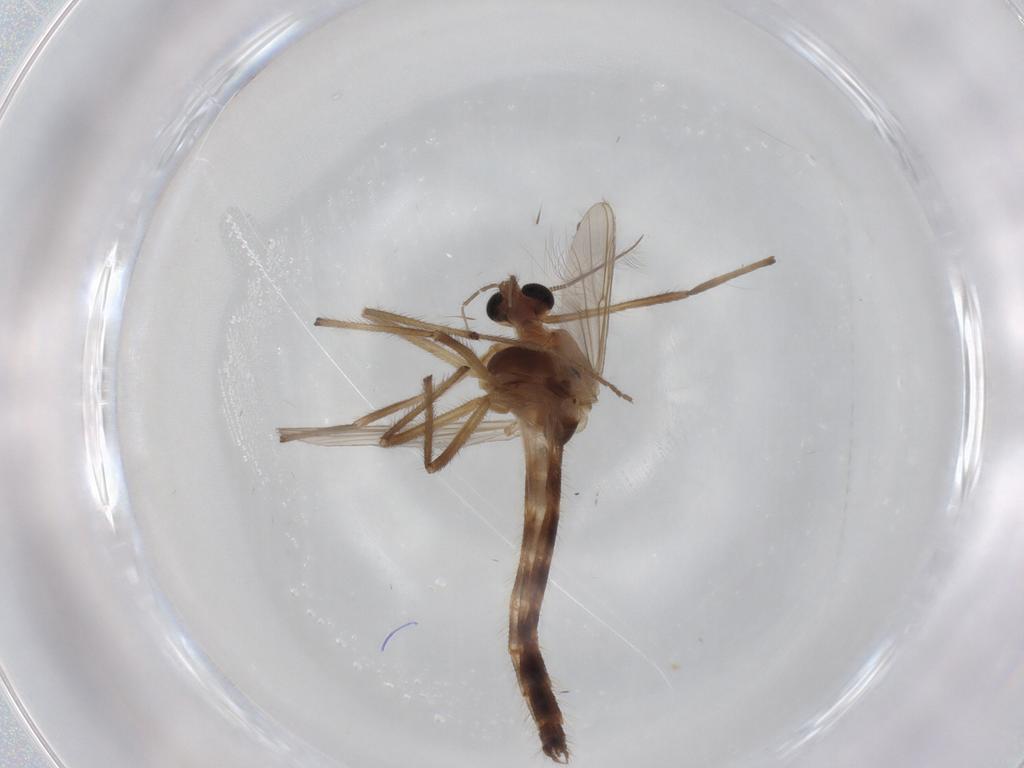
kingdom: Animalia
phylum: Arthropoda
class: Insecta
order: Diptera
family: Chironomidae
